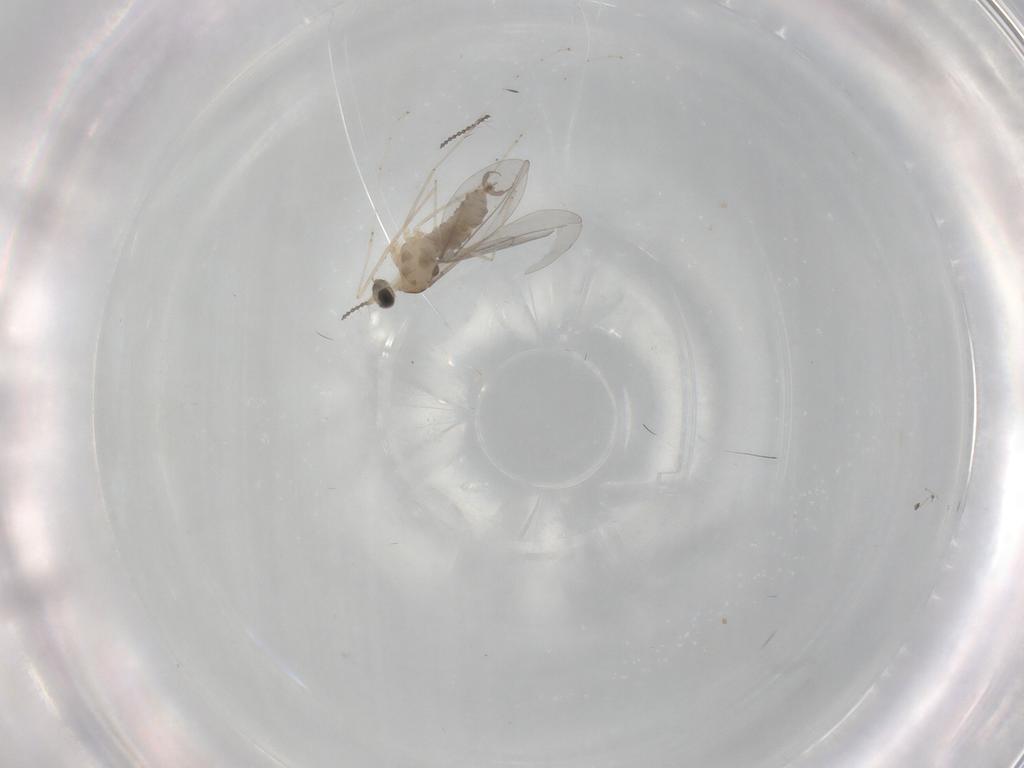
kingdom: Animalia
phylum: Arthropoda
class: Insecta
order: Diptera
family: Cecidomyiidae
